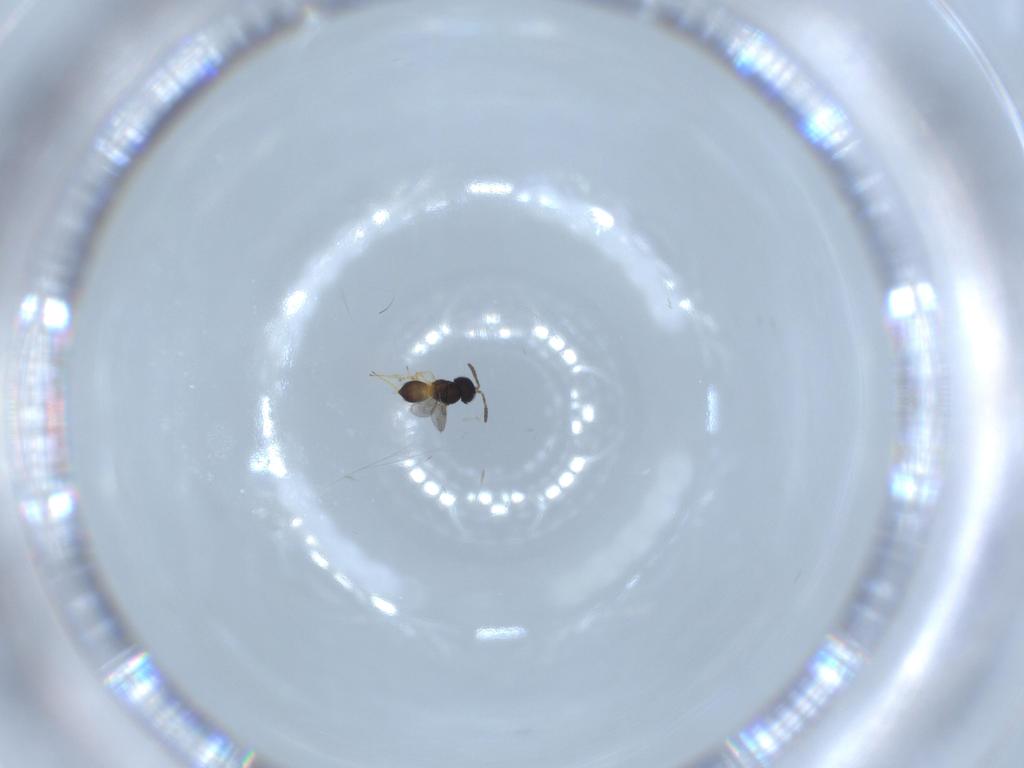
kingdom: Animalia
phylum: Arthropoda
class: Insecta
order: Hymenoptera
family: Scelionidae
